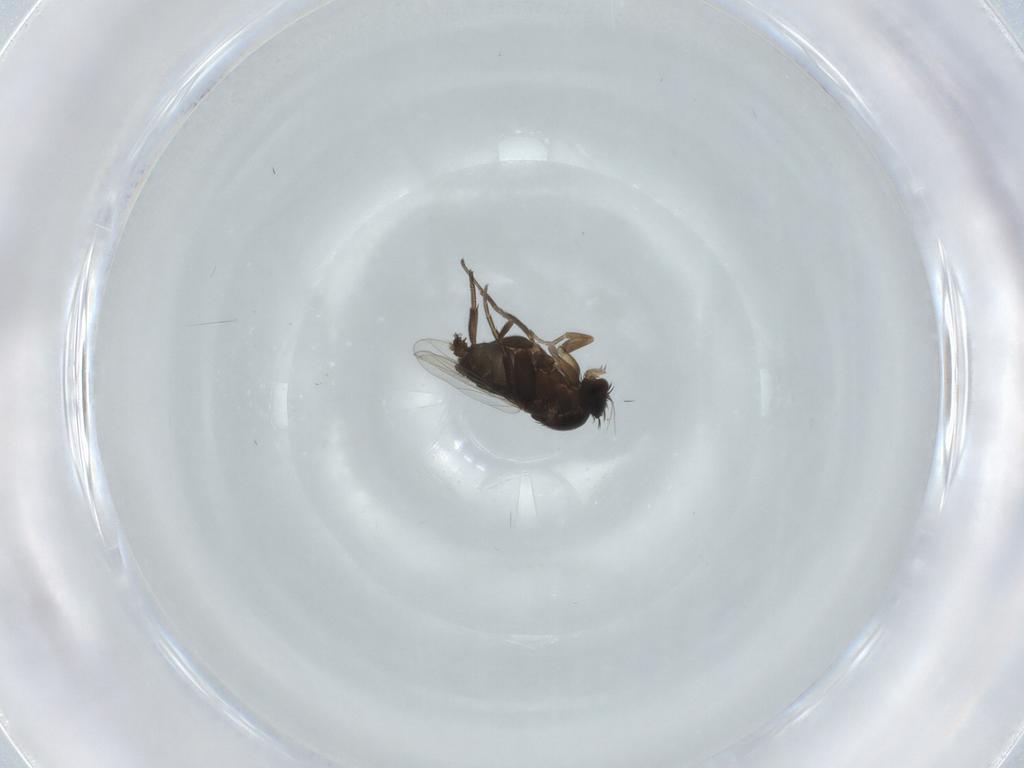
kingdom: Animalia
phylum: Arthropoda
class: Insecta
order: Diptera
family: Phoridae
